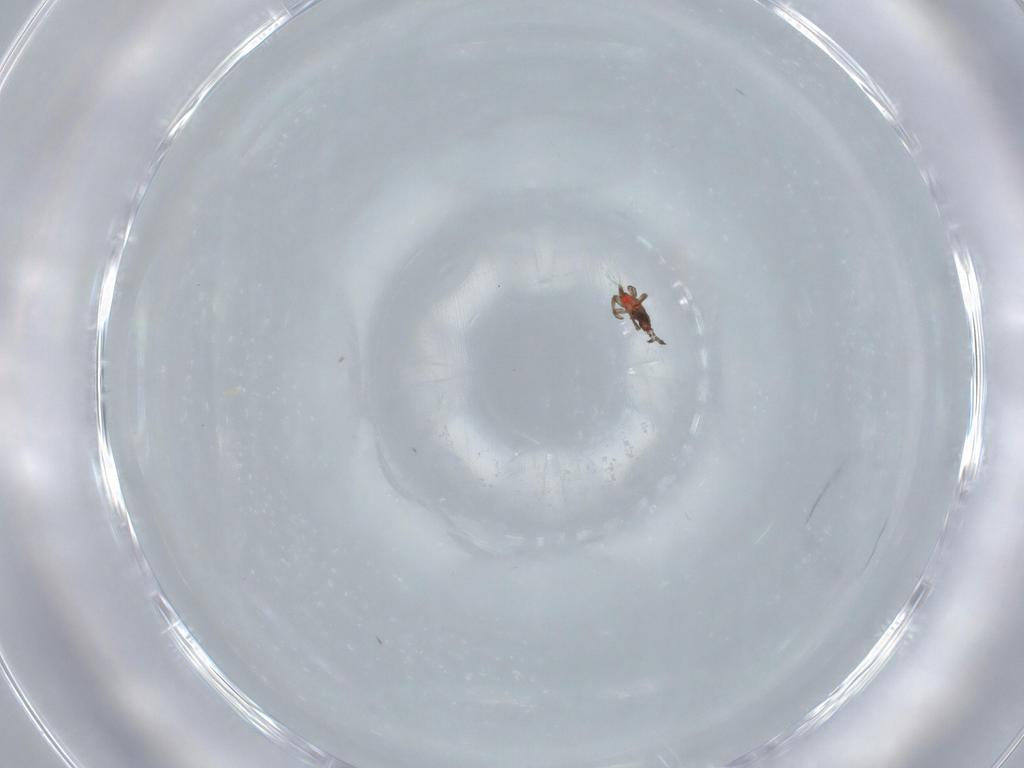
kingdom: Animalia
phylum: Arthropoda
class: Insecta
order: Thysanoptera
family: Phlaeothripidae
